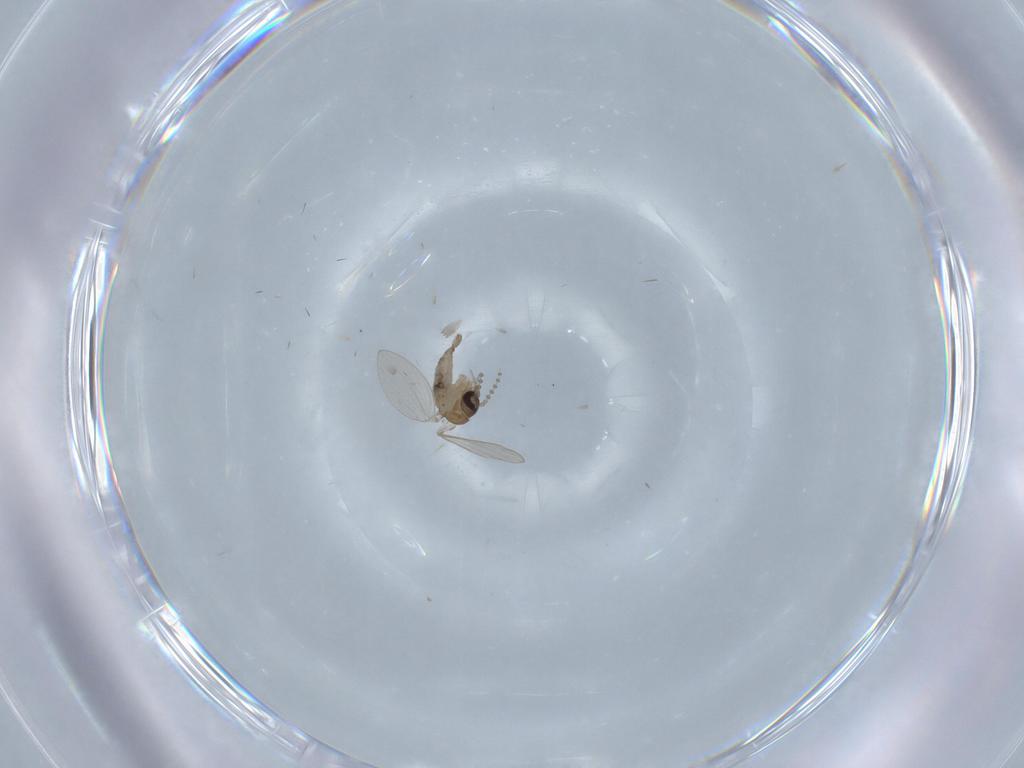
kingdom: Animalia
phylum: Arthropoda
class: Insecta
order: Diptera
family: Psychodidae
